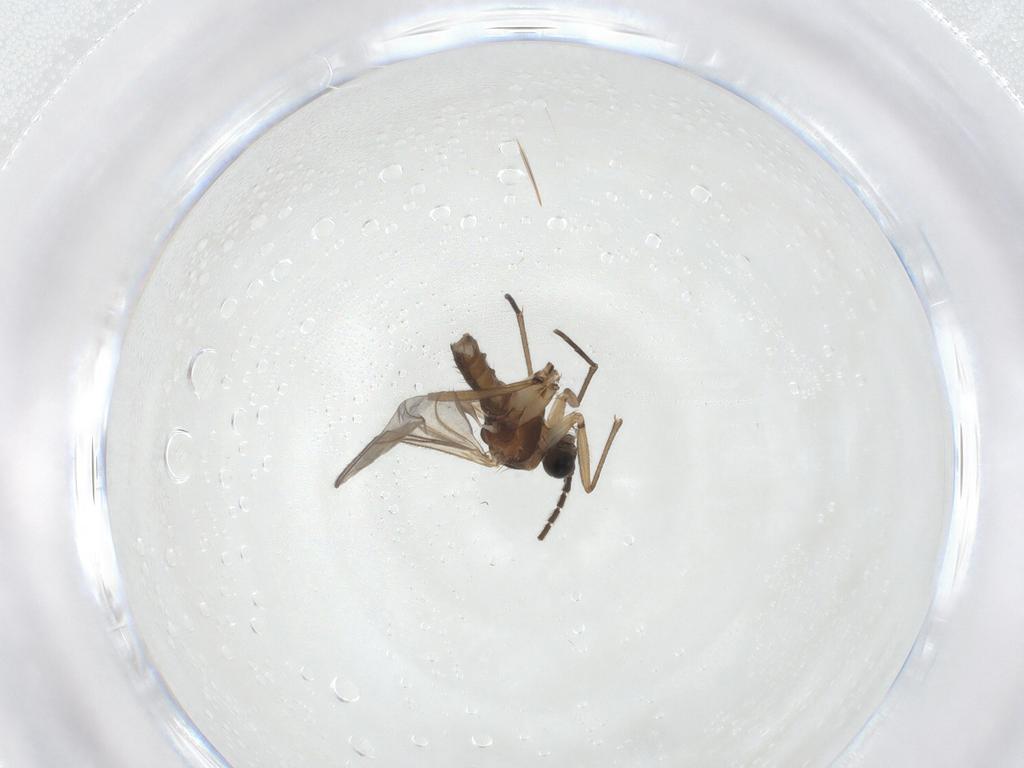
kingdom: Animalia
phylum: Arthropoda
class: Insecta
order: Diptera
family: Sciaridae
